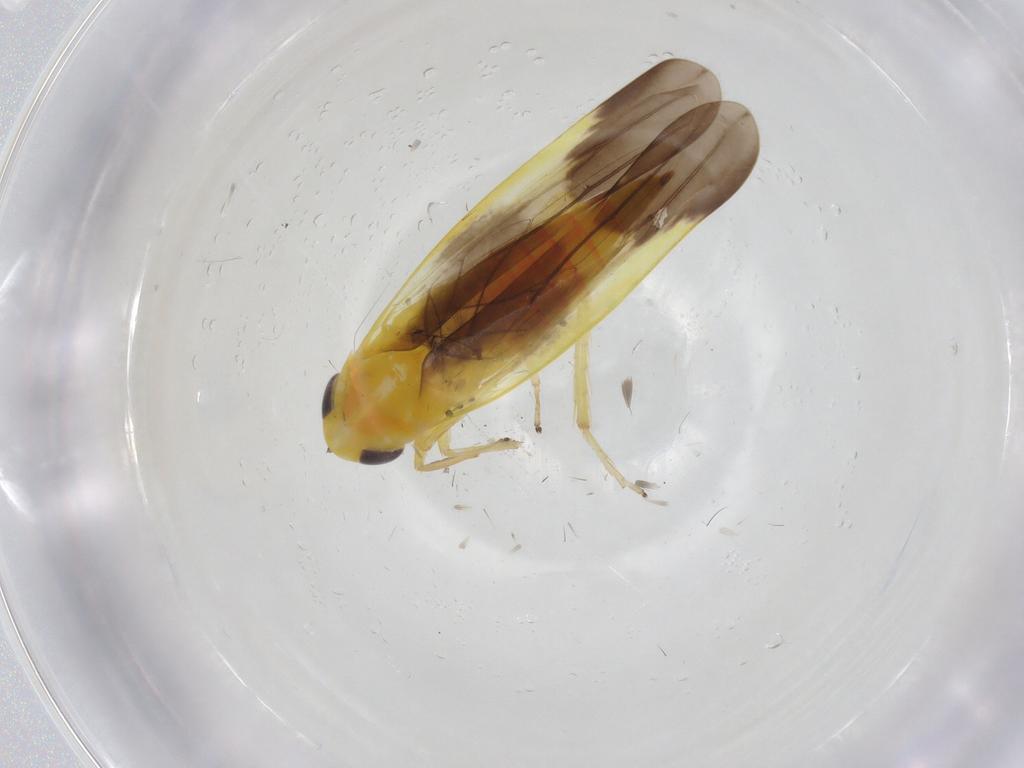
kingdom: Animalia
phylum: Arthropoda
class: Insecta
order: Hemiptera
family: Cicadellidae
